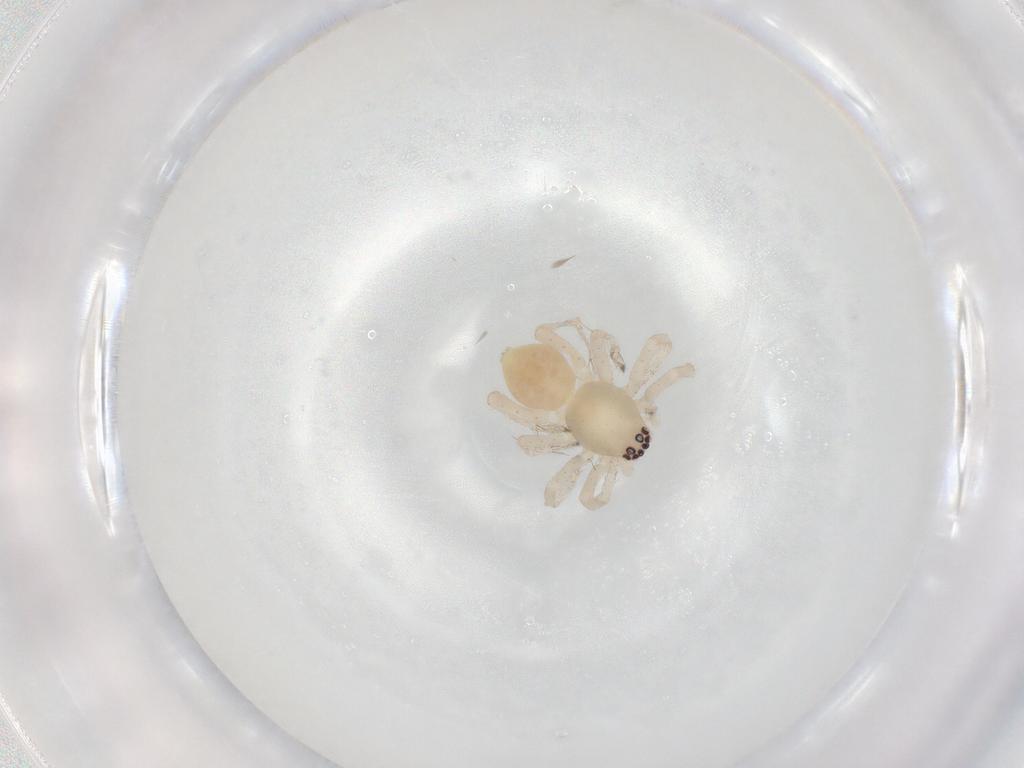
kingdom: Animalia
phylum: Arthropoda
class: Arachnida
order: Araneae
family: Clubionidae
